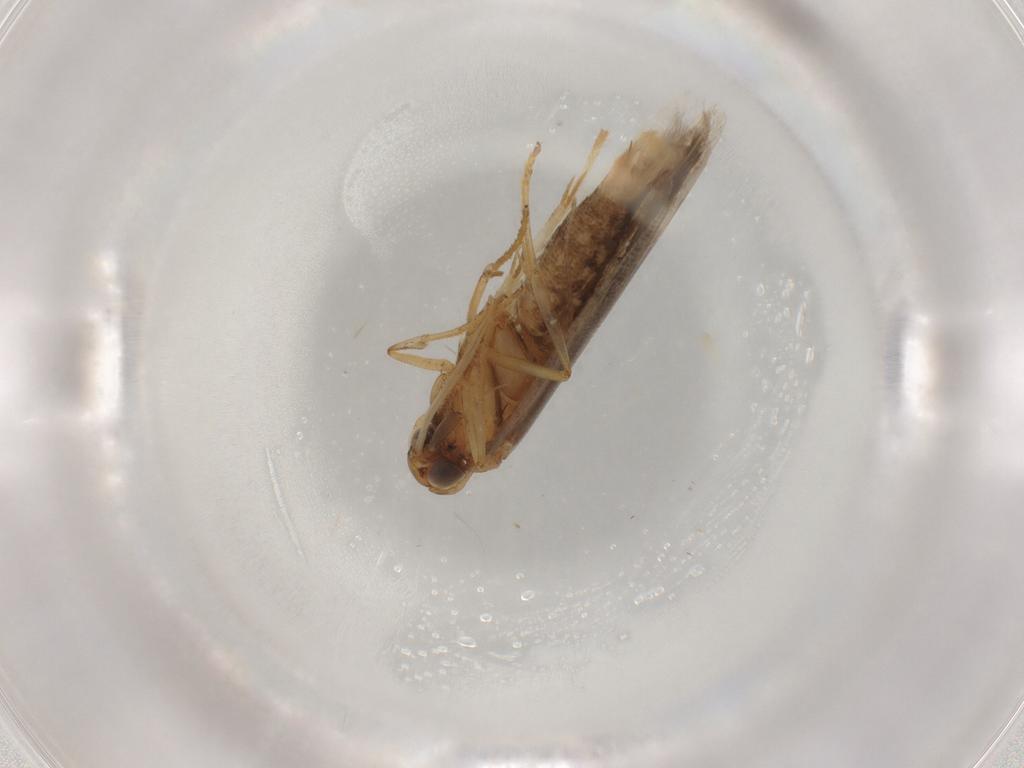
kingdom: Animalia
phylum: Arthropoda
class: Insecta
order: Lepidoptera
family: Gelechiidae
